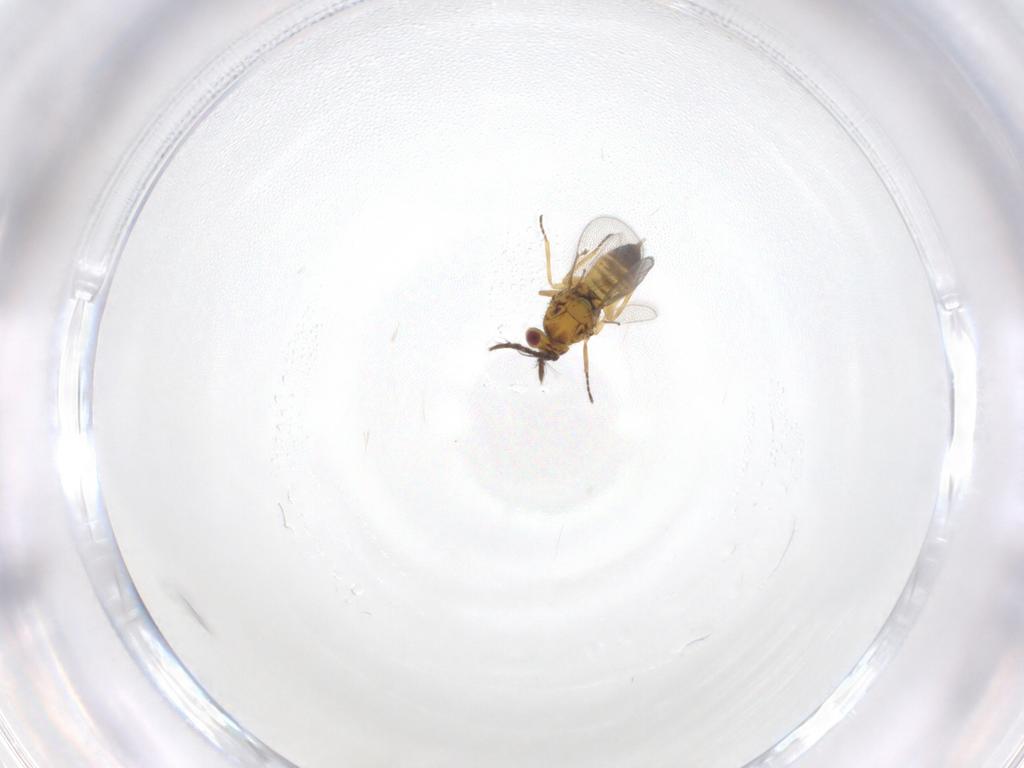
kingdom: Animalia
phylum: Arthropoda
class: Insecta
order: Hymenoptera
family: Eulophidae
